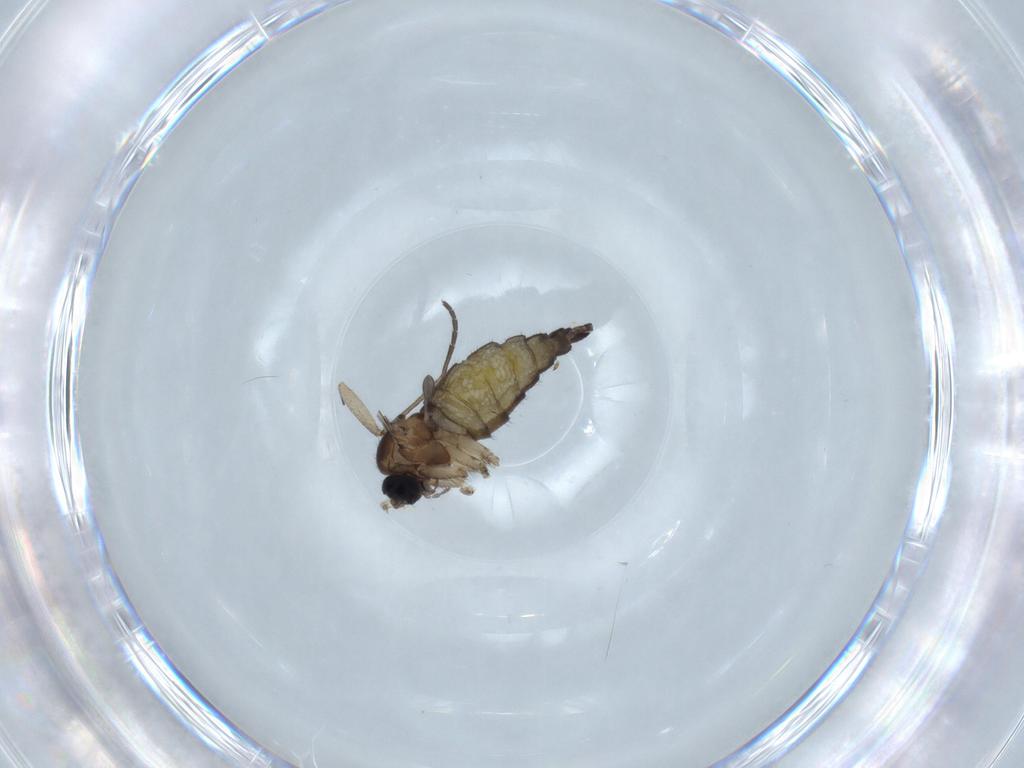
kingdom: Animalia
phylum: Arthropoda
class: Insecta
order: Diptera
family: Sciaridae
